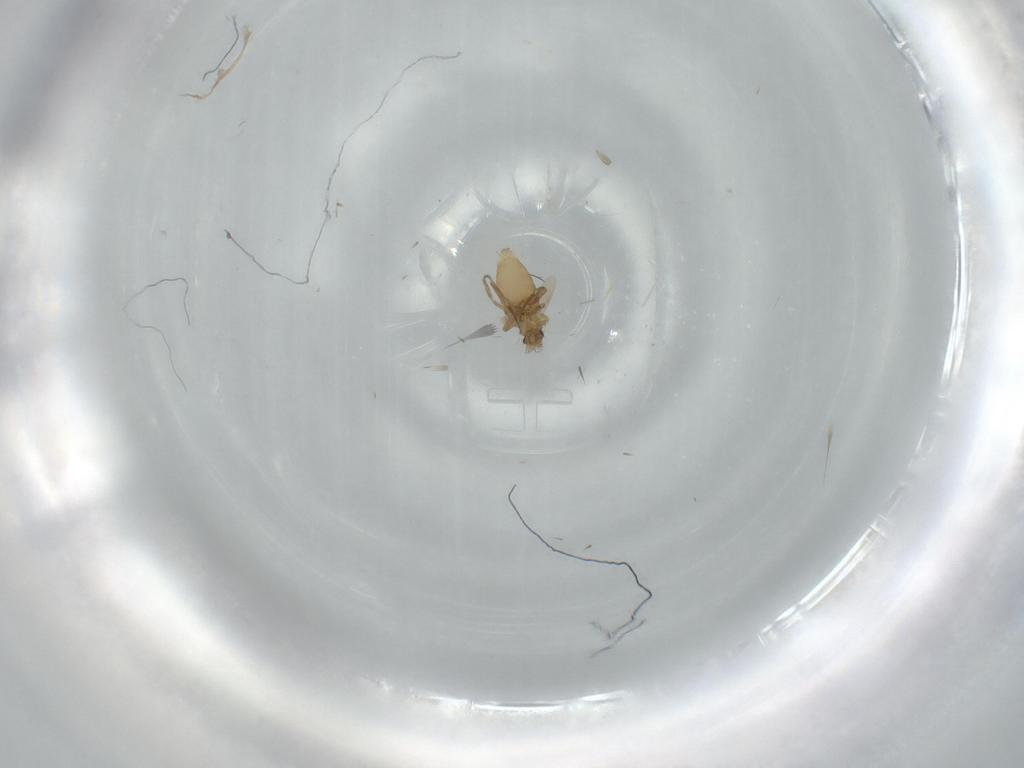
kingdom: Animalia
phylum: Arthropoda
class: Insecta
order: Diptera
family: Phoridae
